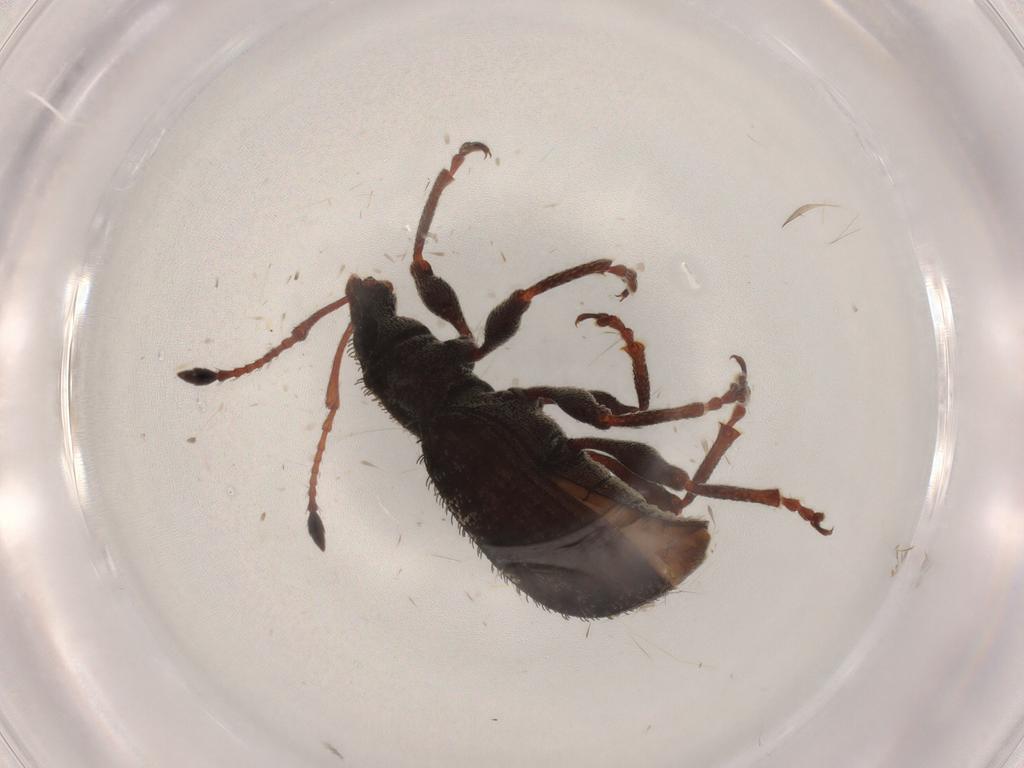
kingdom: Animalia
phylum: Arthropoda
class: Insecta
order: Coleoptera
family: Curculionidae
